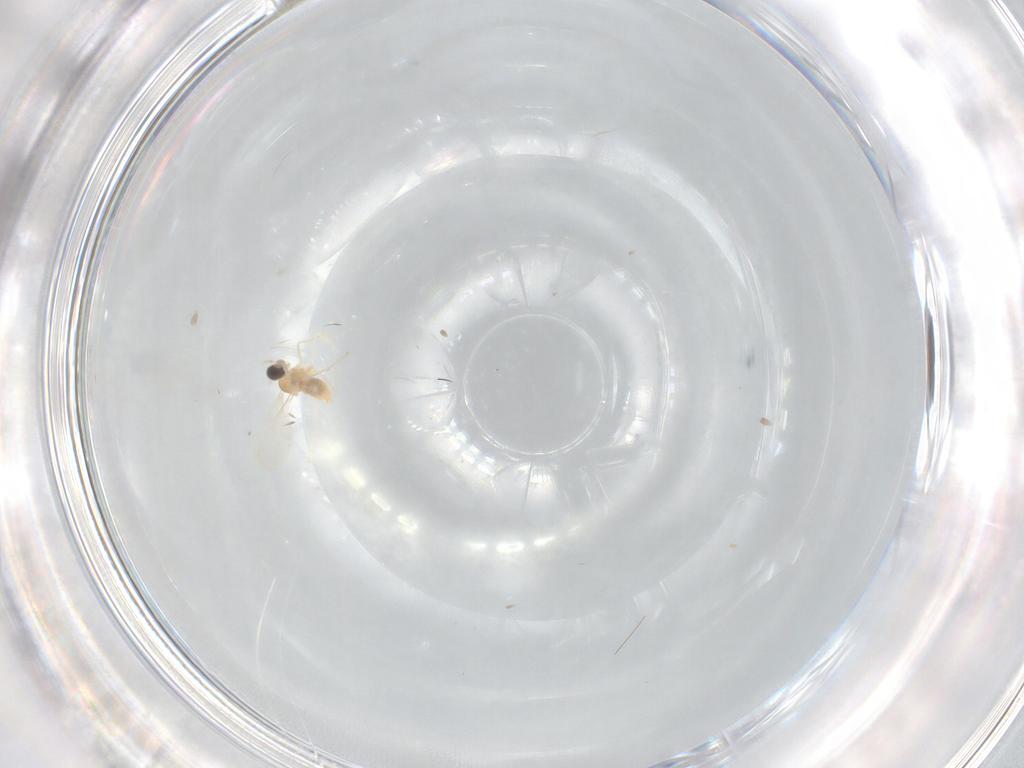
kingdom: Animalia
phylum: Arthropoda
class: Insecta
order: Diptera
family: Cecidomyiidae
